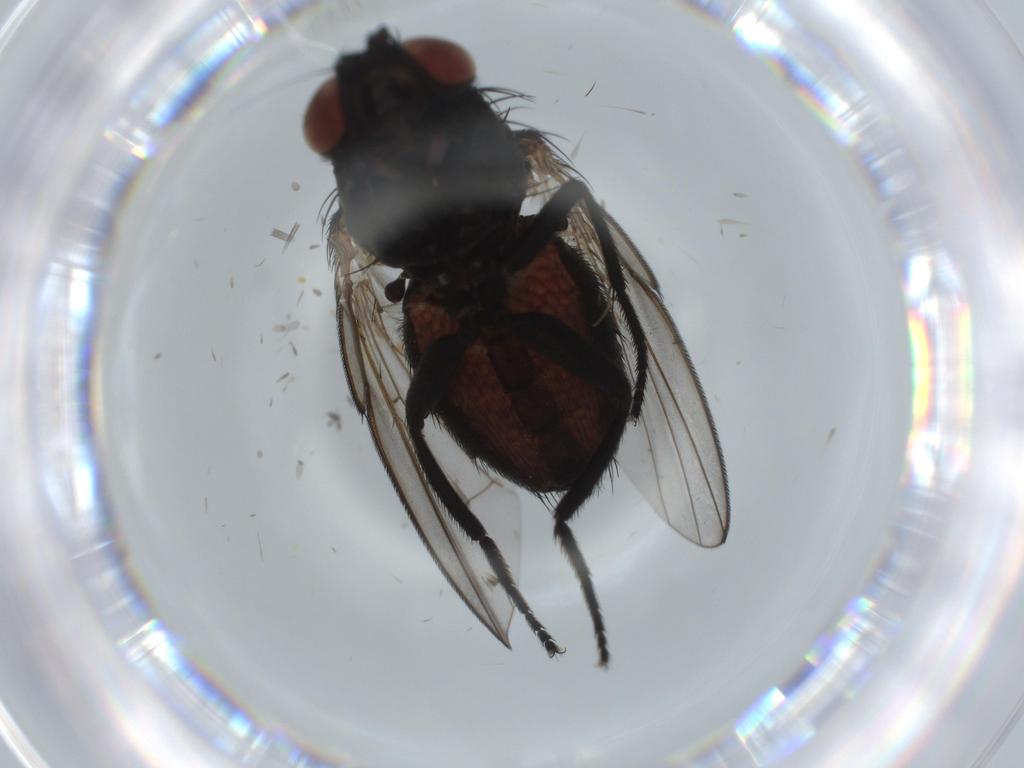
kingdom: Animalia
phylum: Arthropoda
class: Insecta
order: Diptera
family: Milichiidae
